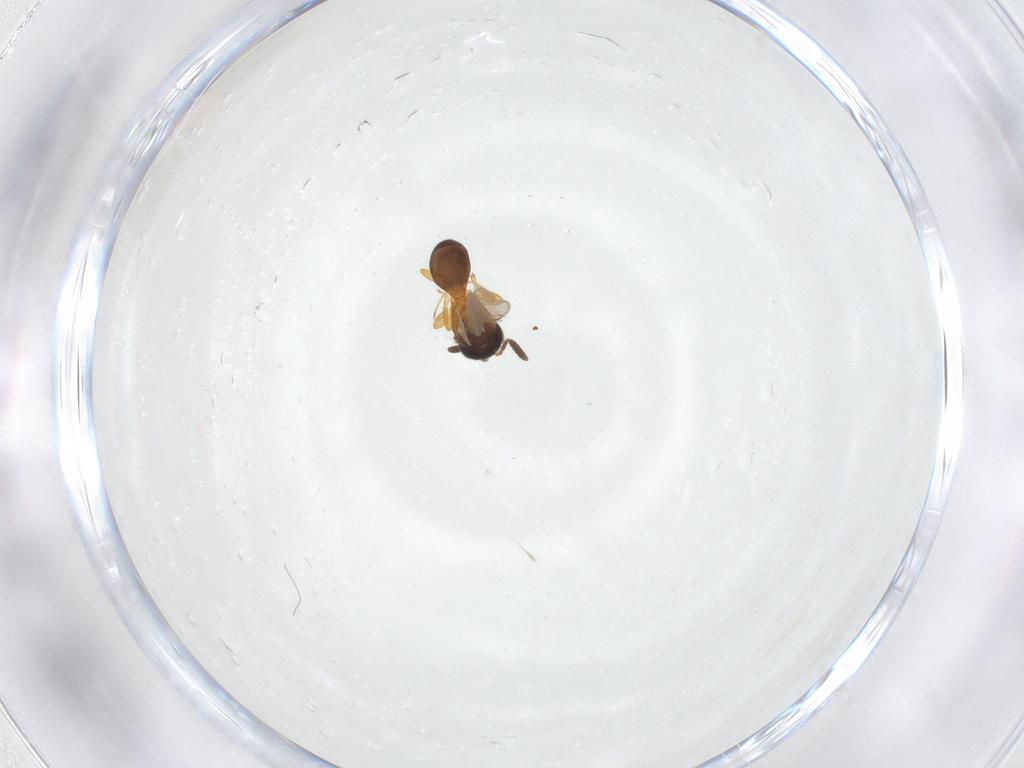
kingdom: Animalia
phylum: Arthropoda
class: Insecta
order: Hymenoptera
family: Scelionidae
